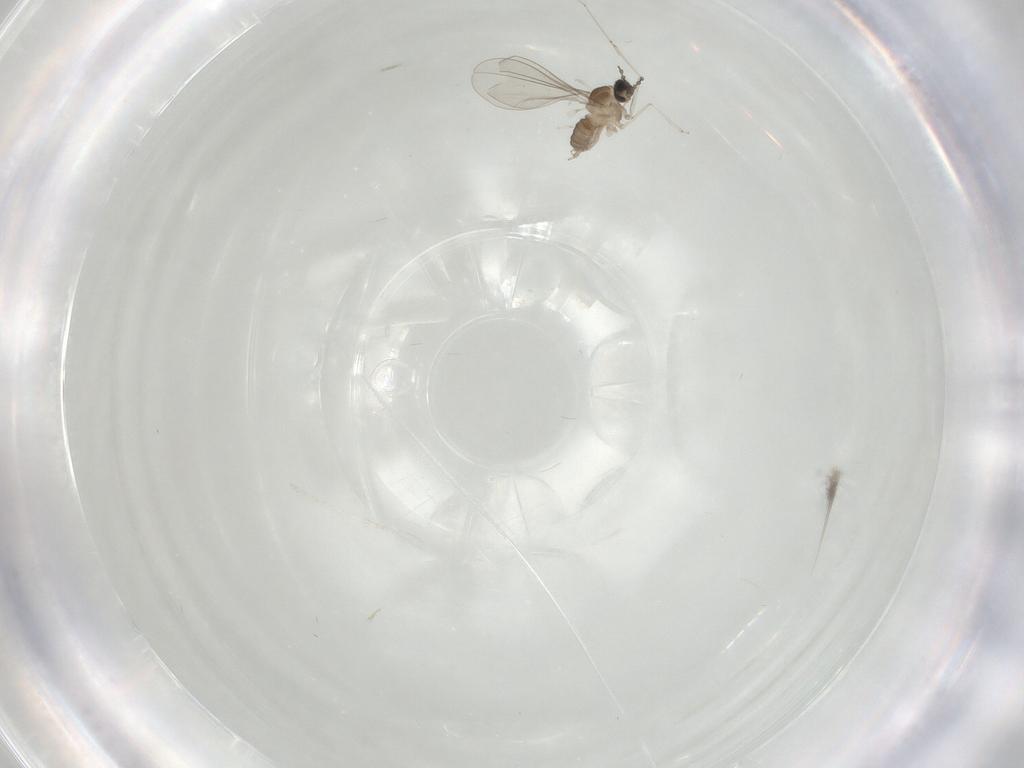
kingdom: Animalia
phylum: Arthropoda
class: Insecta
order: Diptera
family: Cecidomyiidae
